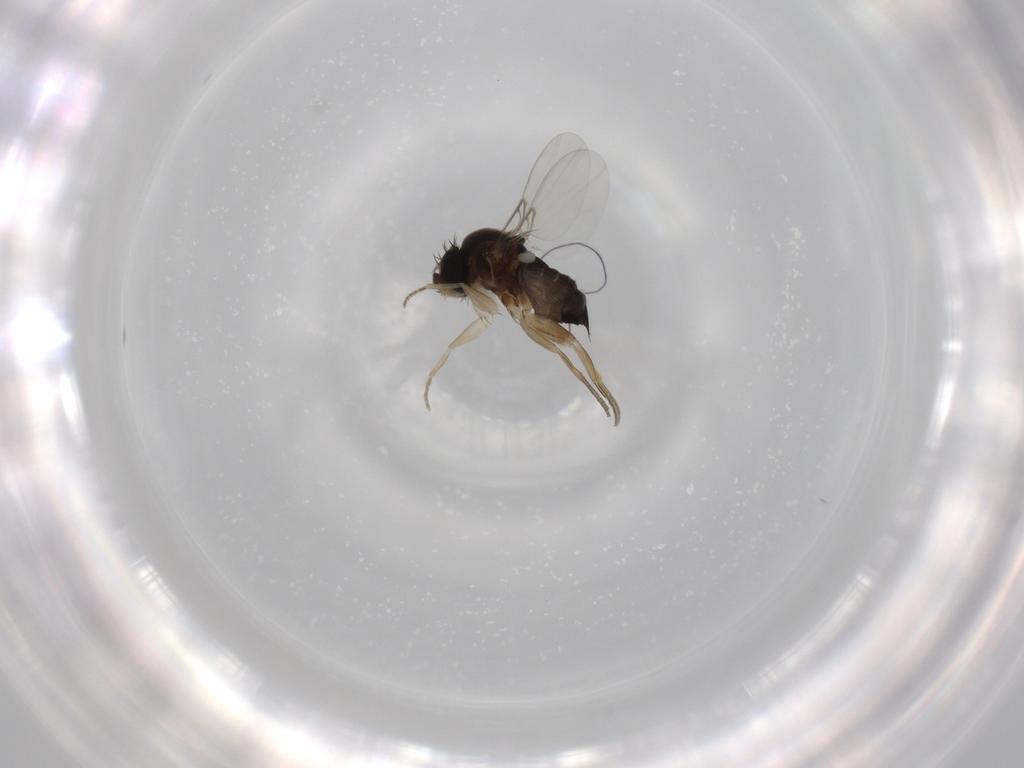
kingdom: Animalia
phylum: Arthropoda
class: Insecta
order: Diptera
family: Phoridae
